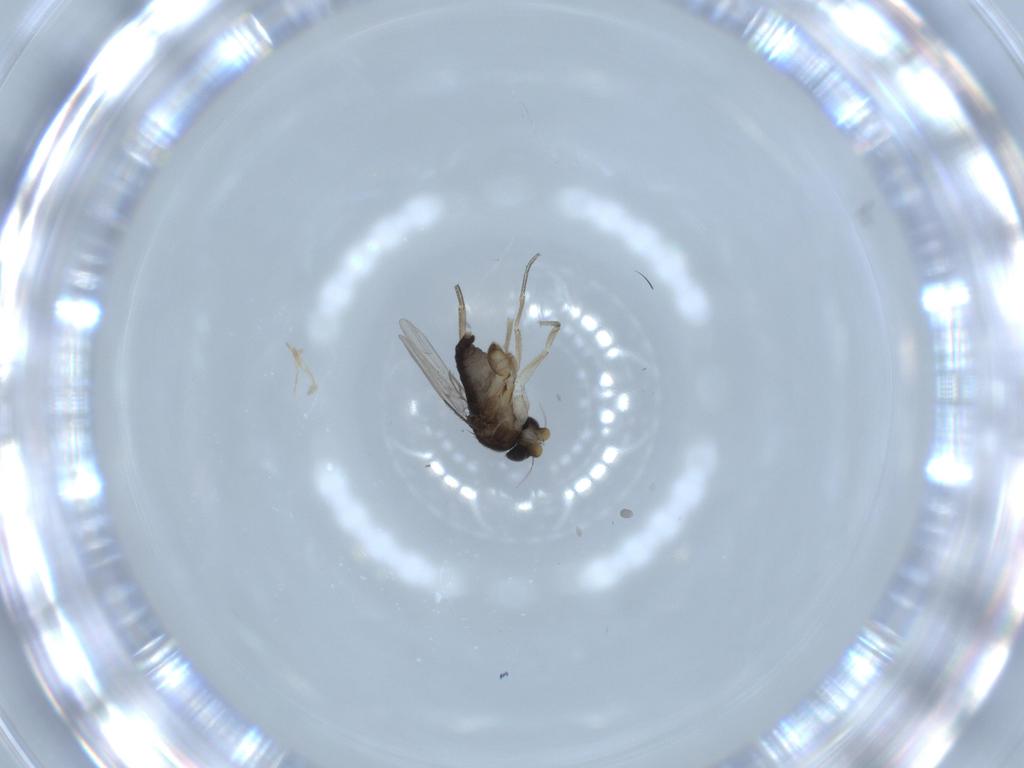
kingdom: Animalia
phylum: Arthropoda
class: Insecta
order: Diptera
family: Phoridae
